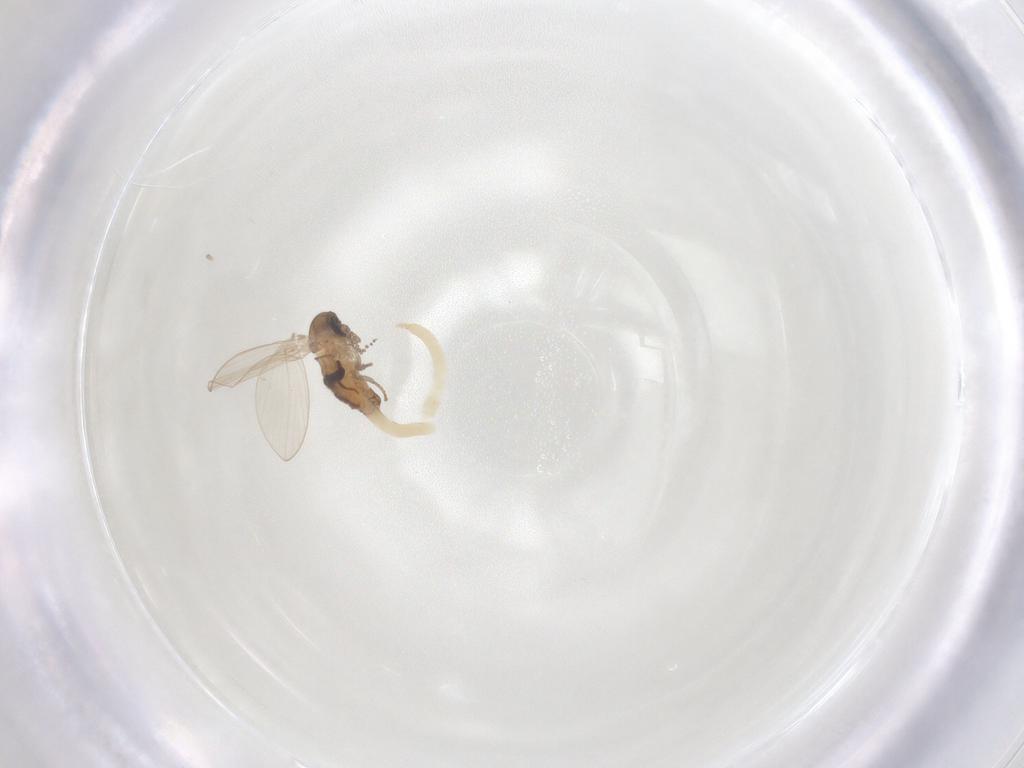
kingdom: Animalia
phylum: Arthropoda
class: Insecta
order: Diptera
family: Psychodidae
